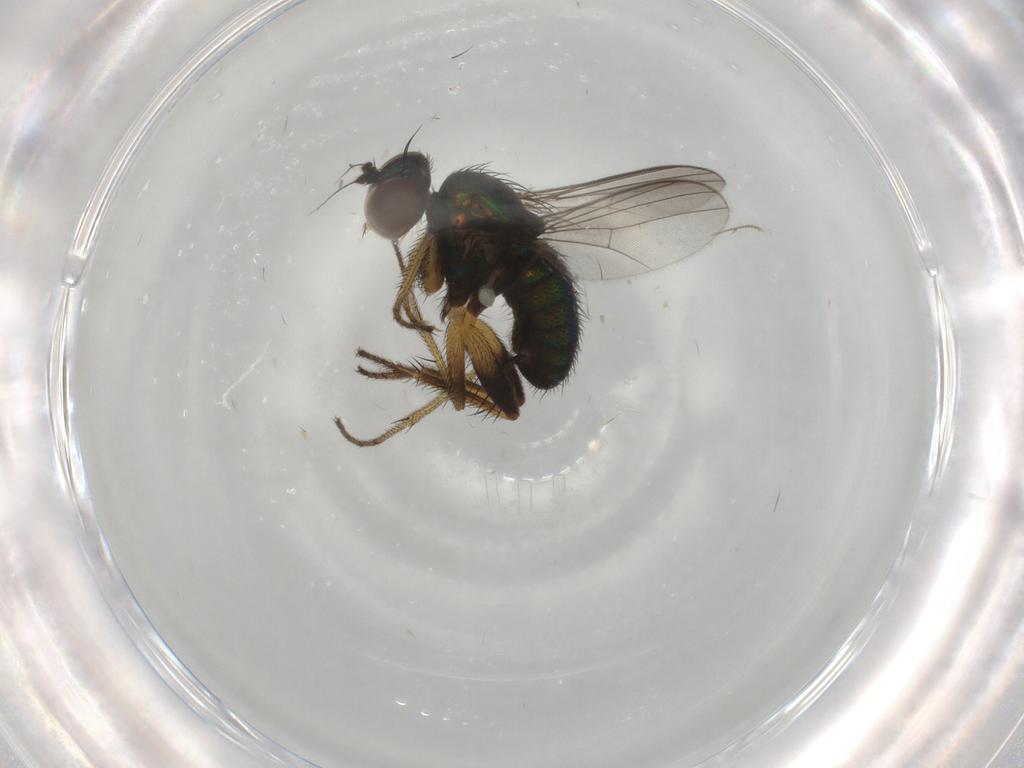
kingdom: Animalia
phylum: Arthropoda
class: Insecta
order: Diptera
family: Dolichopodidae
